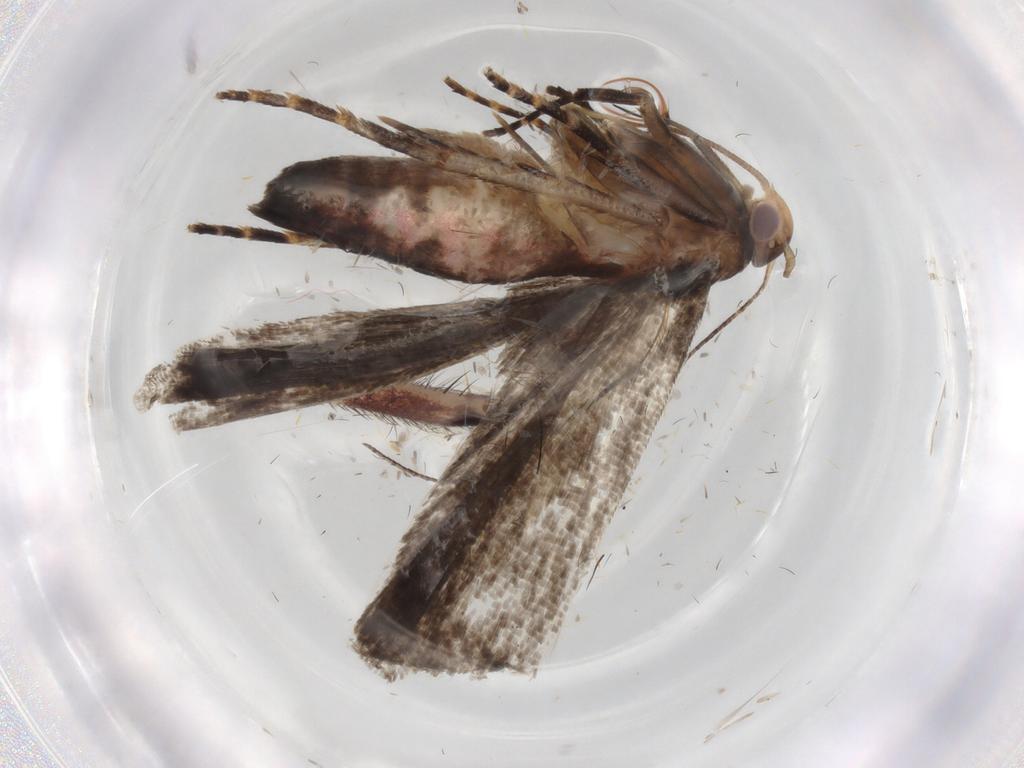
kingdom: Animalia
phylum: Arthropoda
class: Insecta
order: Lepidoptera
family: Gelechiidae
